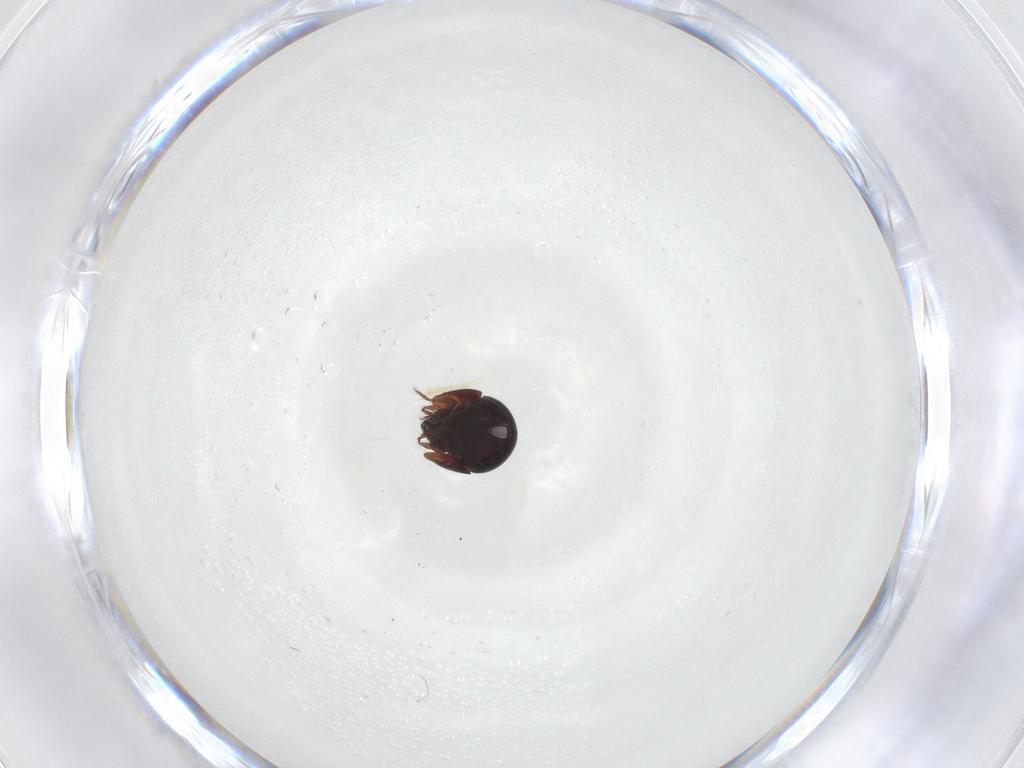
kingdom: Animalia
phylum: Arthropoda
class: Arachnida
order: Sarcoptiformes
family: Galumnidae
